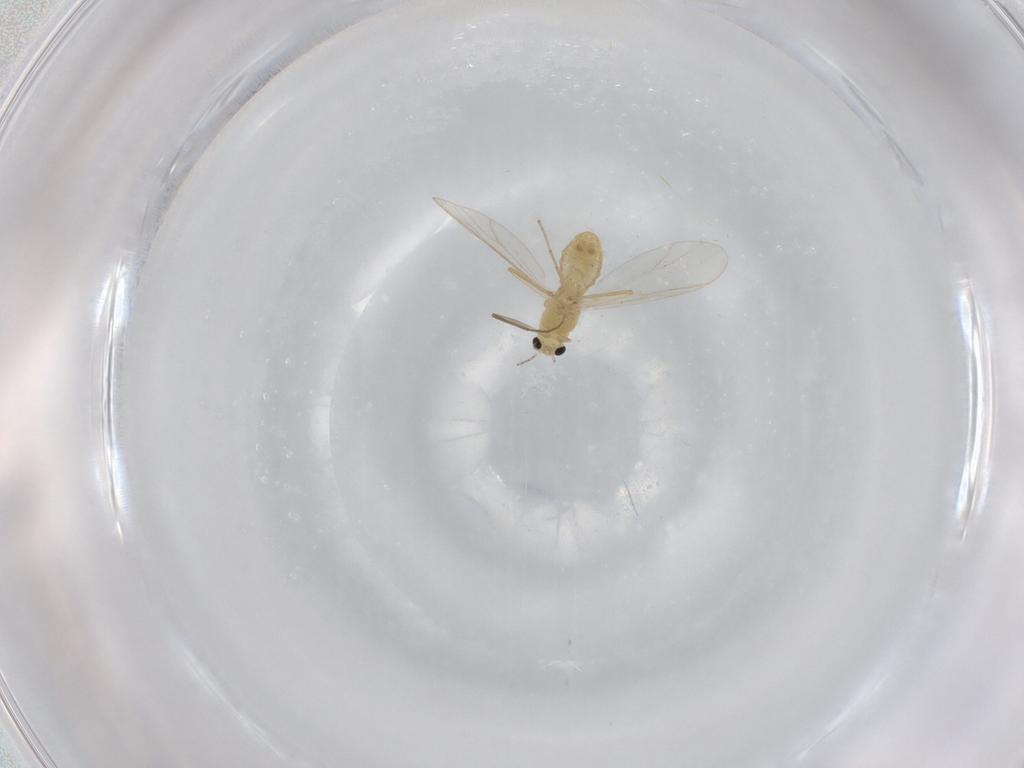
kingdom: Animalia
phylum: Arthropoda
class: Insecta
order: Diptera
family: Chironomidae
